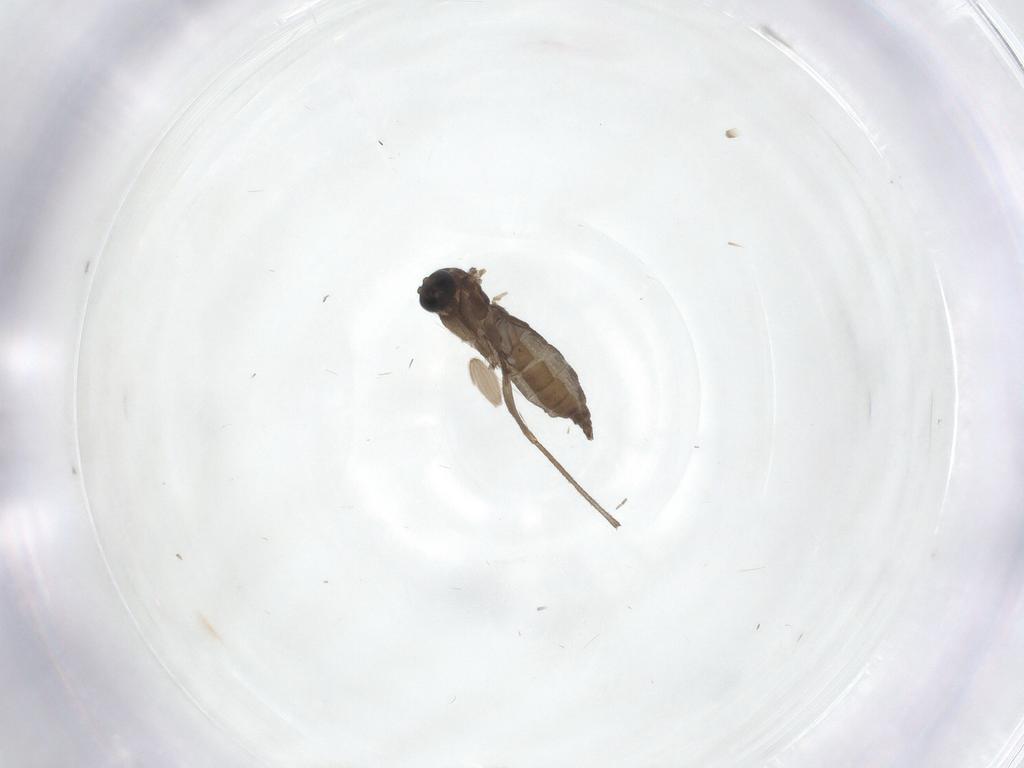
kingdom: Animalia
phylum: Arthropoda
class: Insecta
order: Diptera
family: Mycetophilidae
